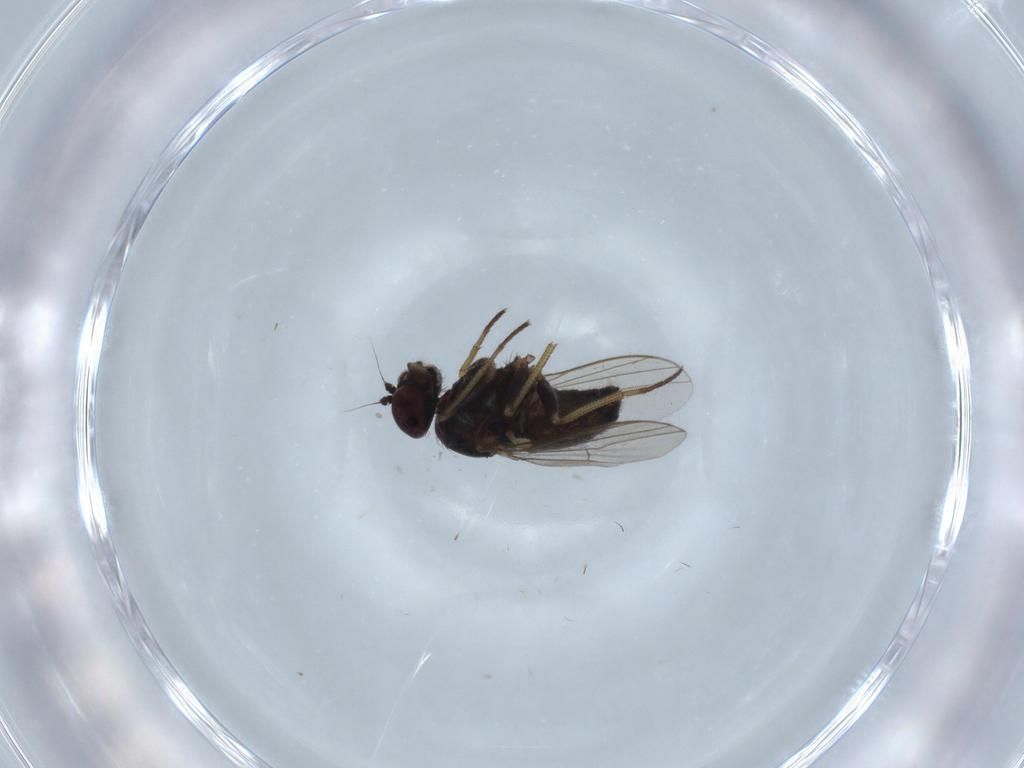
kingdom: Animalia
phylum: Arthropoda
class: Insecta
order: Diptera
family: Dolichopodidae
